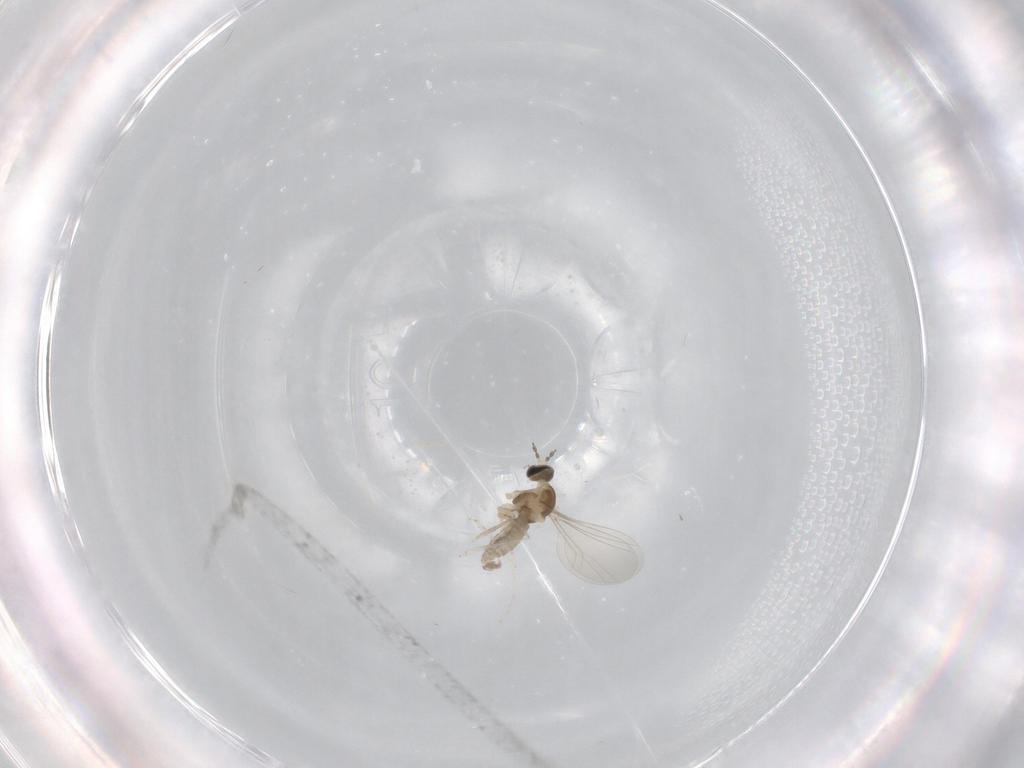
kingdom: Animalia
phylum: Arthropoda
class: Insecta
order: Diptera
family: Cecidomyiidae
